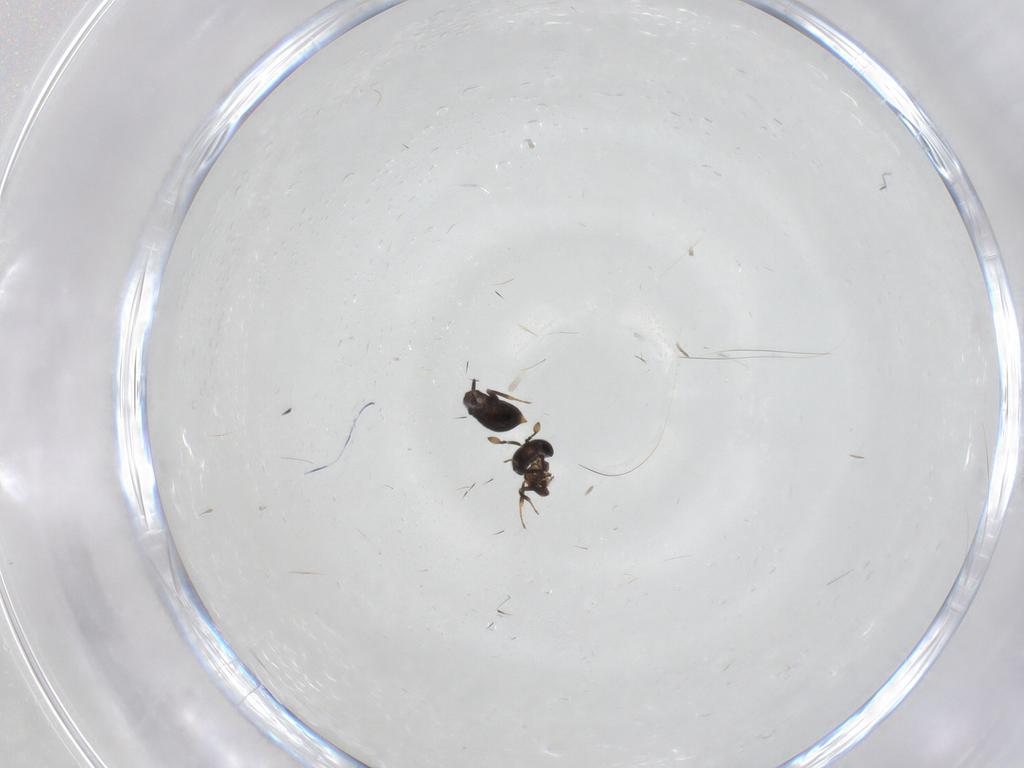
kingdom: Animalia
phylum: Arthropoda
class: Insecta
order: Hymenoptera
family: Scelionidae
